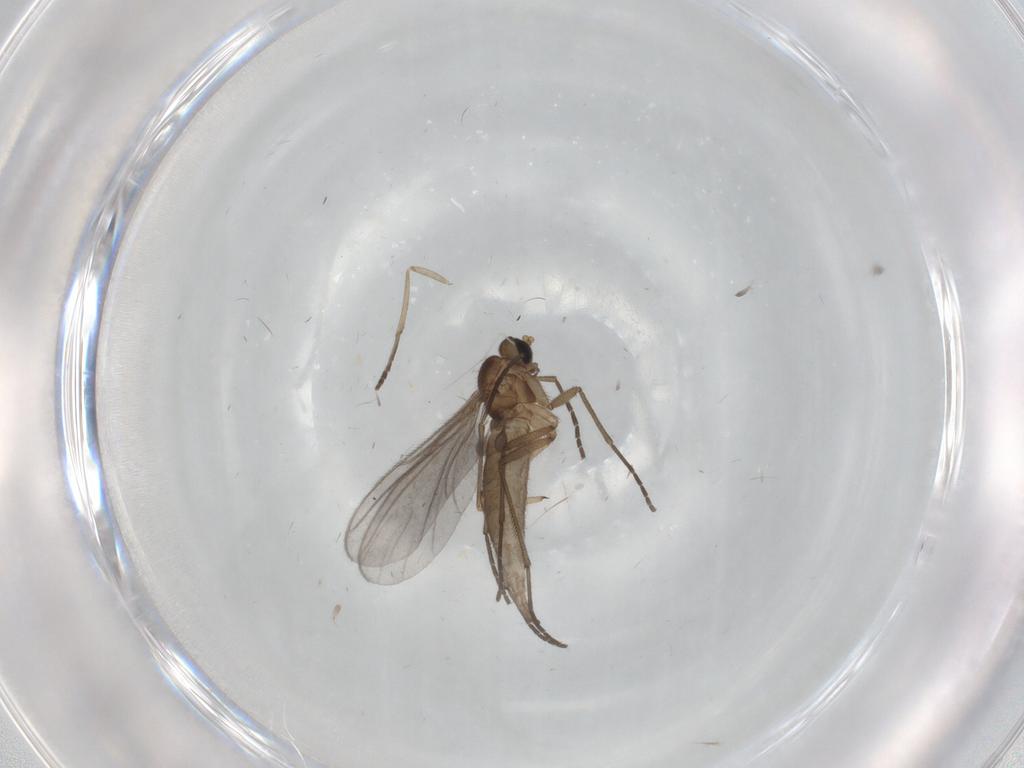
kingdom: Animalia
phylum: Arthropoda
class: Insecta
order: Diptera
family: Sciaridae
